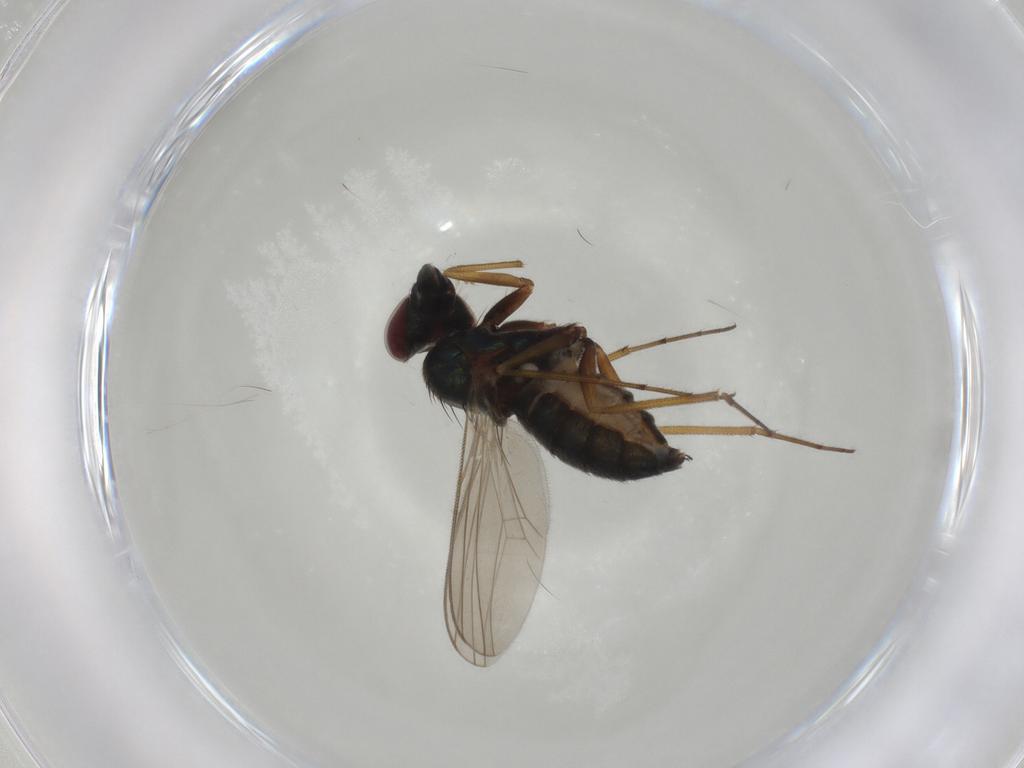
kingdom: Animalia
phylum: Arthropoda
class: Insecta
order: Diptera
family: Dolichopodidae
